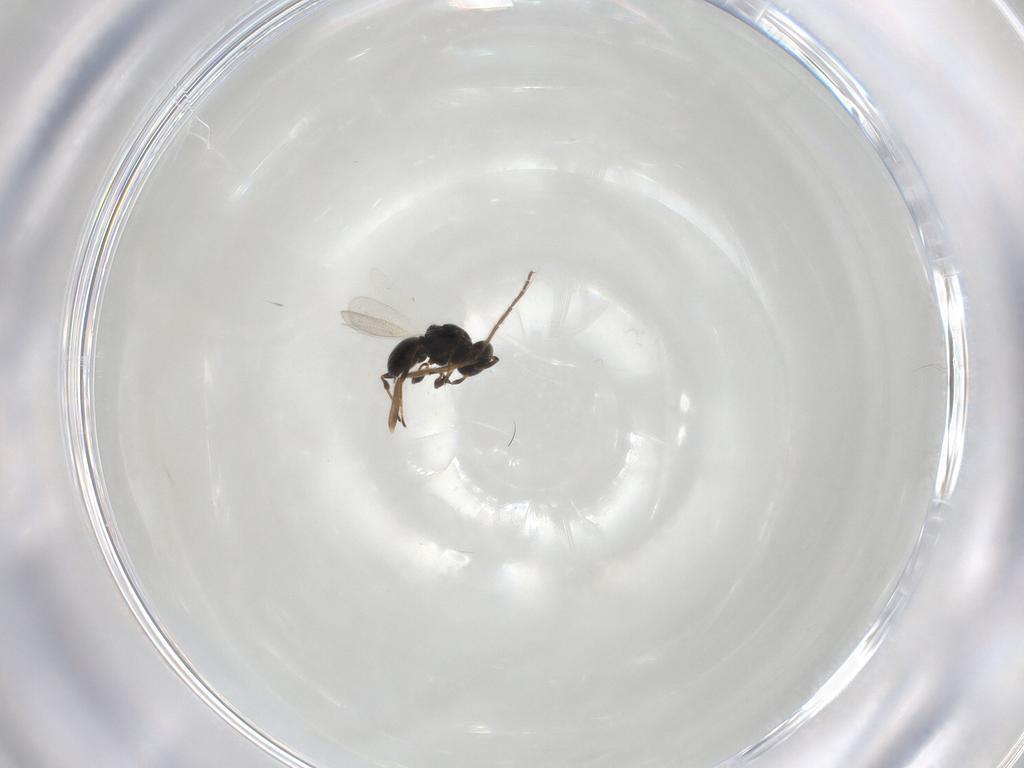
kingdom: Animalia
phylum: Arthropoda
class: Insecta
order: Hymenoptera
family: Platygastridae
